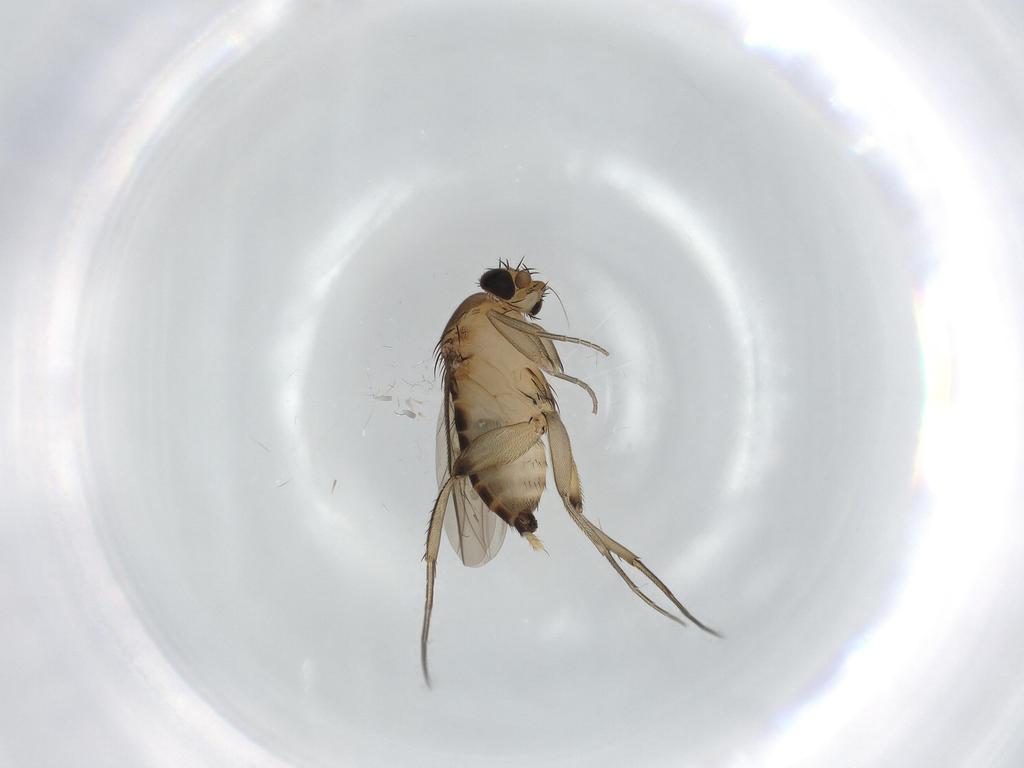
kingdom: Animalia
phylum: Arthropoda
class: Insecta
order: Diptera
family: Phoridae
